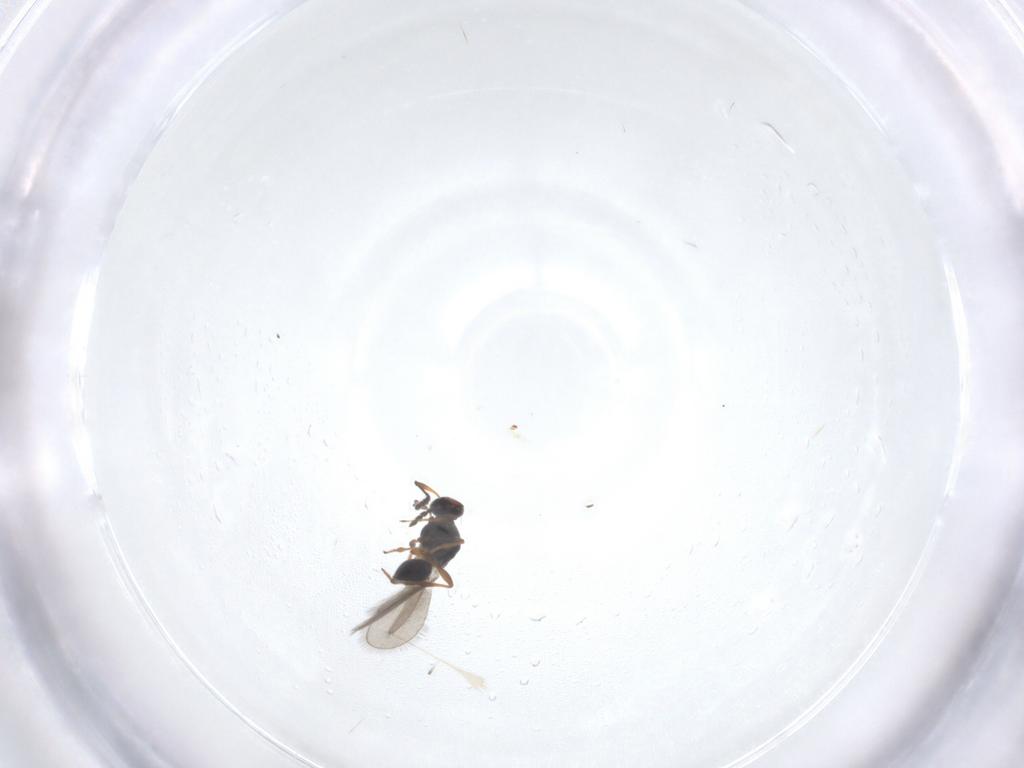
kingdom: Animalia
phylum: Arthropoda
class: Insecta
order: Hymenoptera
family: Platygastridae
